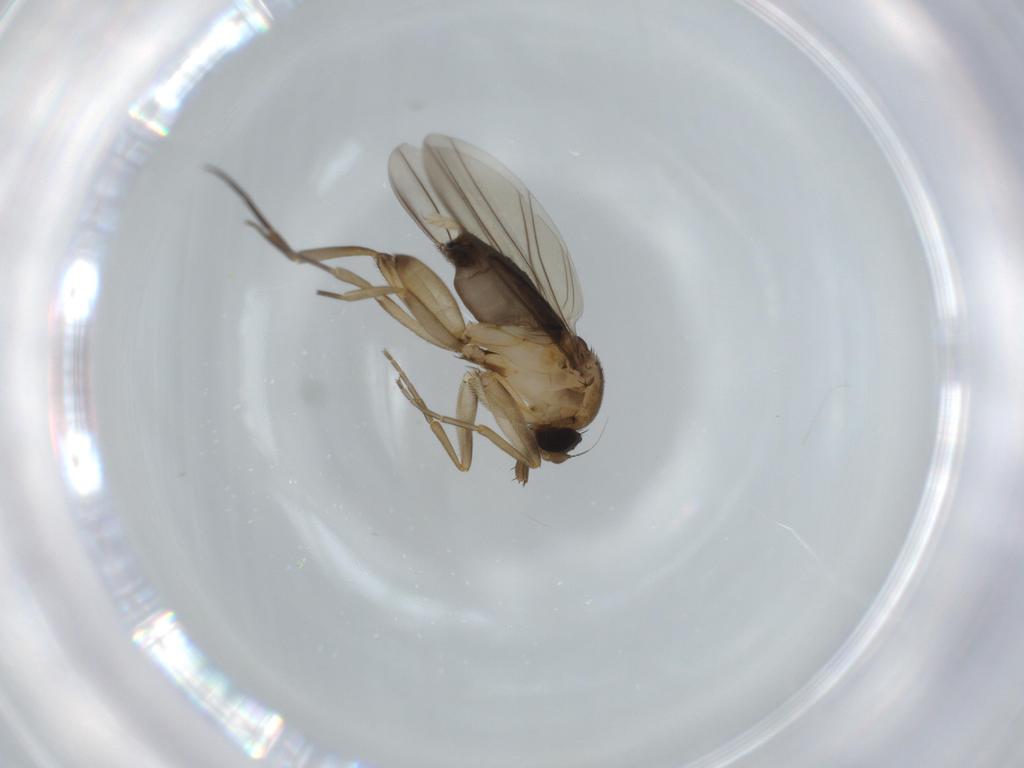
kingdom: Animalia
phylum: Arthropoda
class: Insecta
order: Diptera
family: Phoridae
